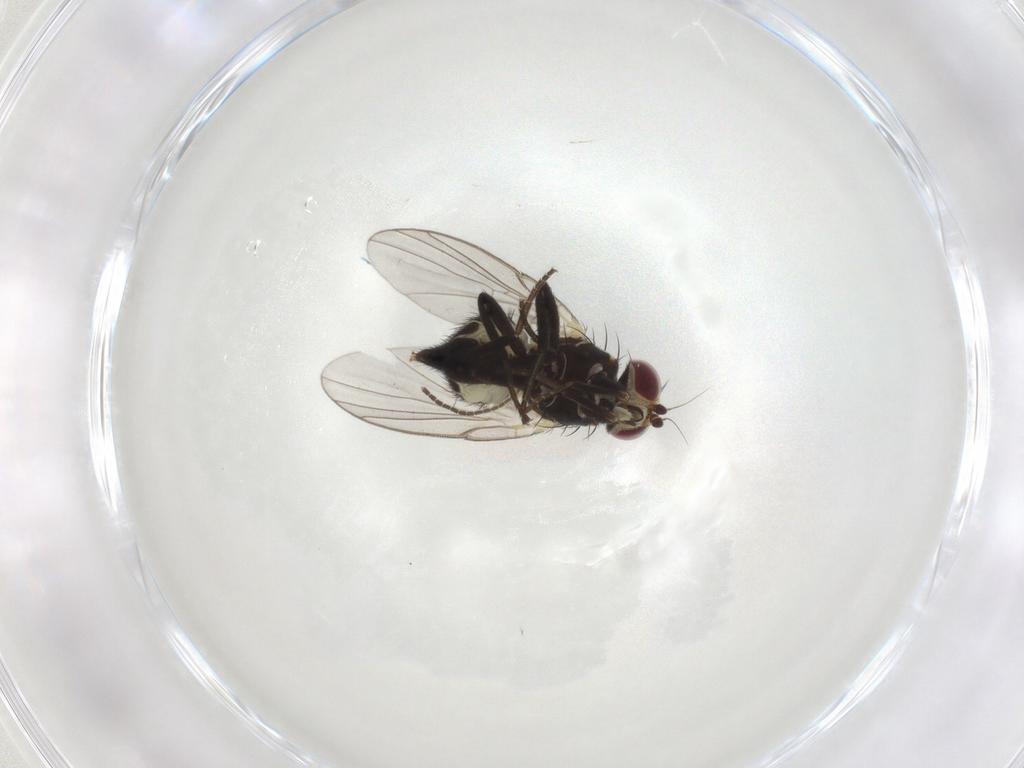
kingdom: Animalia
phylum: Arthropoda
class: Insecta
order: Diptera
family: Agromyzidae
